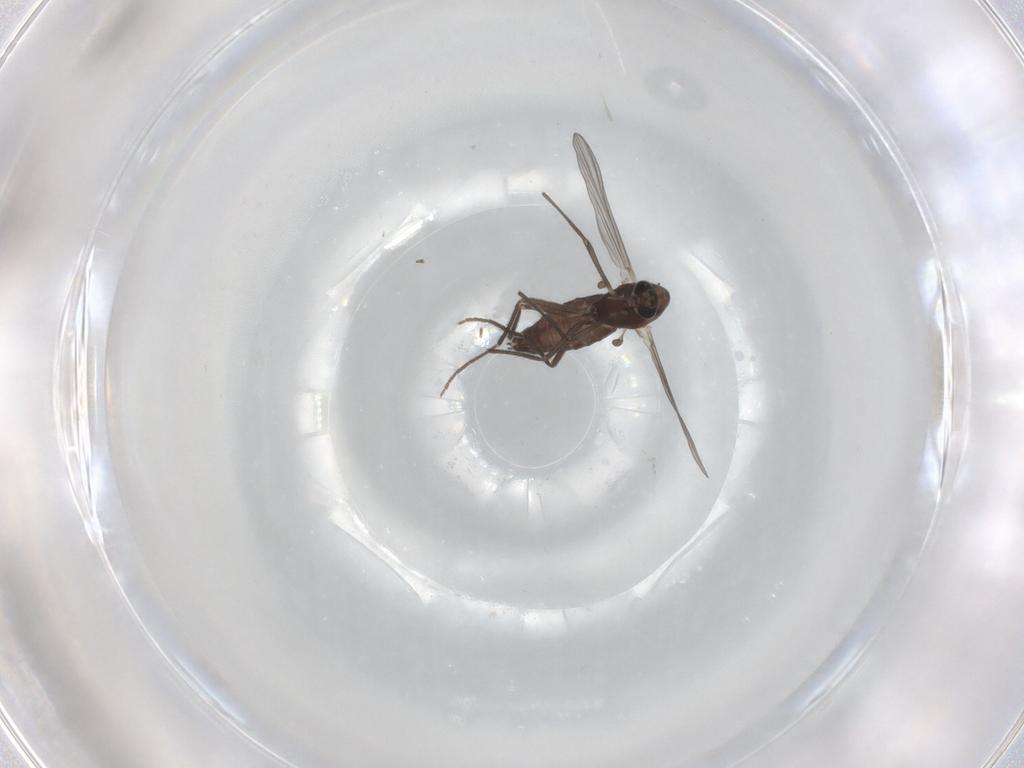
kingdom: Animalia
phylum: Arthropoda
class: Insecta
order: Diptera
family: Chironomidae
